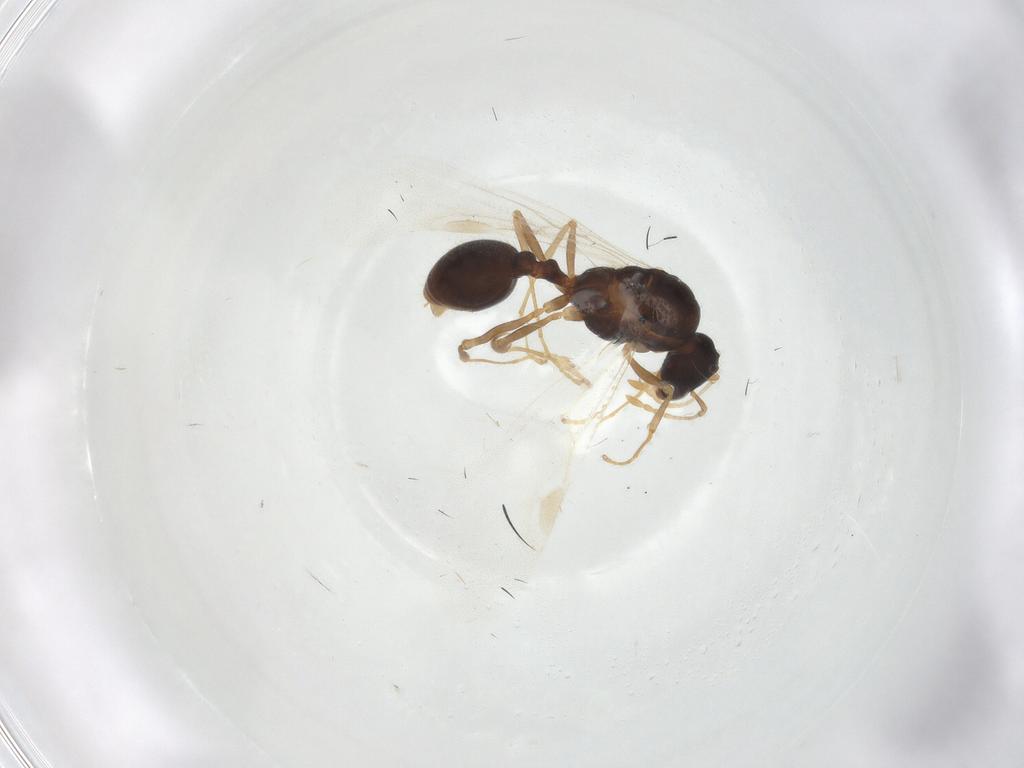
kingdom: Animalia
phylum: Arthropoda
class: Insecta
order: Hymenoptera
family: Formicidae
